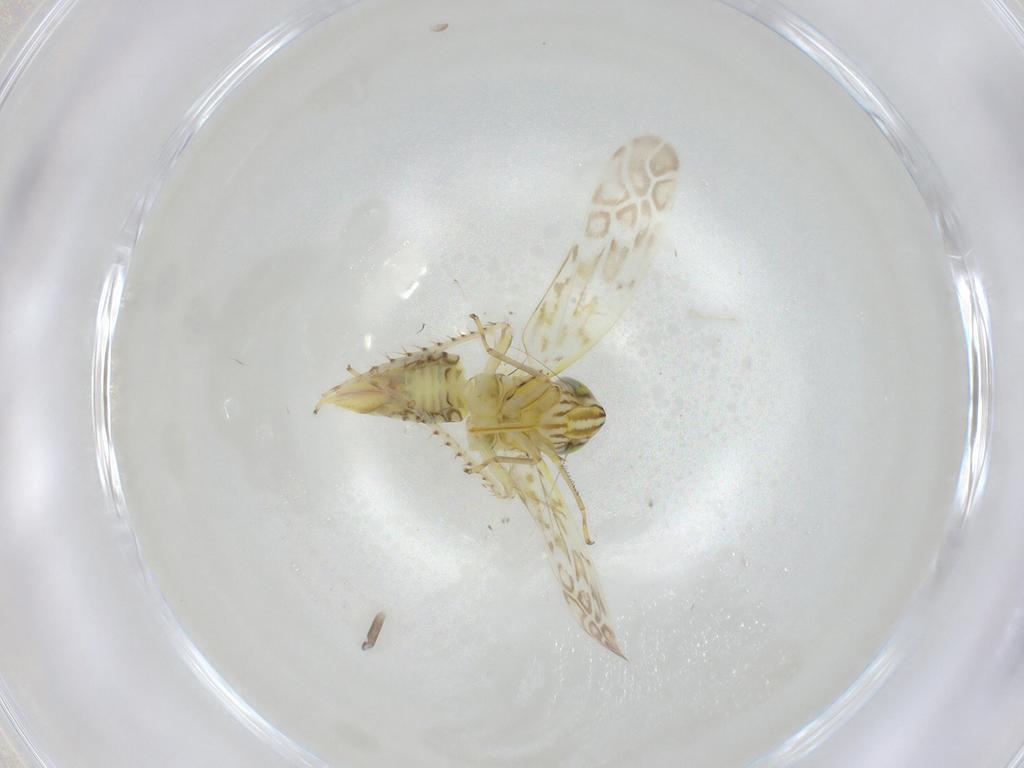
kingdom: Animalia
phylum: Arthropoda
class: Insecta
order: Hemiptera
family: Cicadellidae
